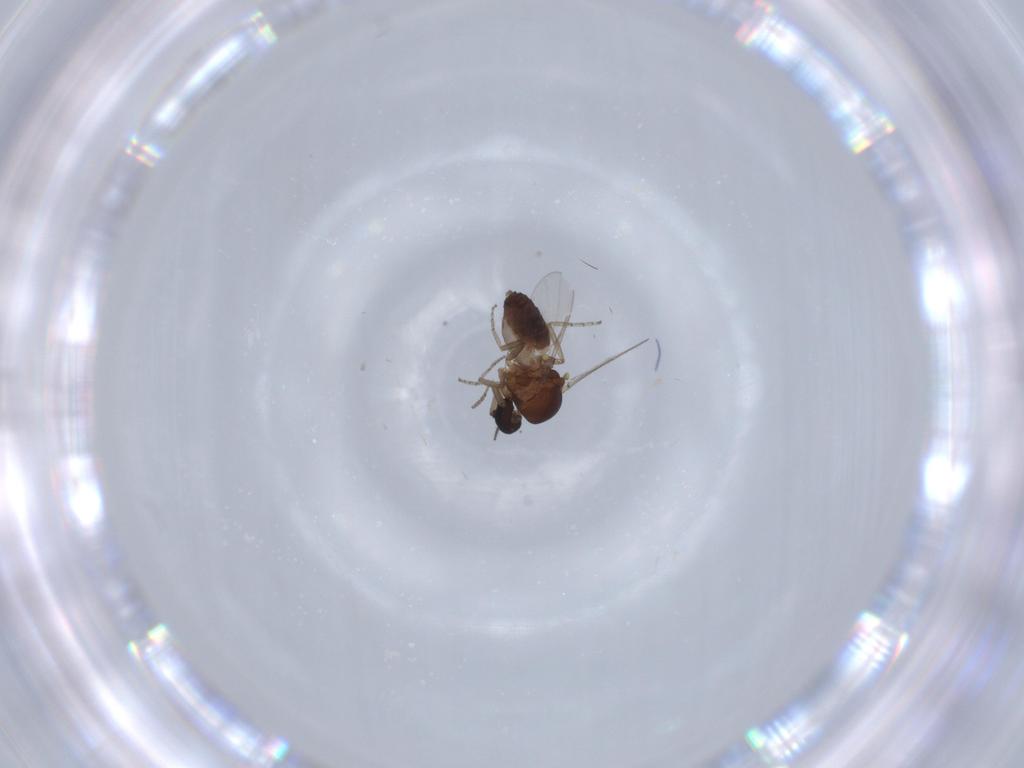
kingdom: Animalia
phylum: Arthropoda
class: Insecta
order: Diptera
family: Ceratopogonidae
